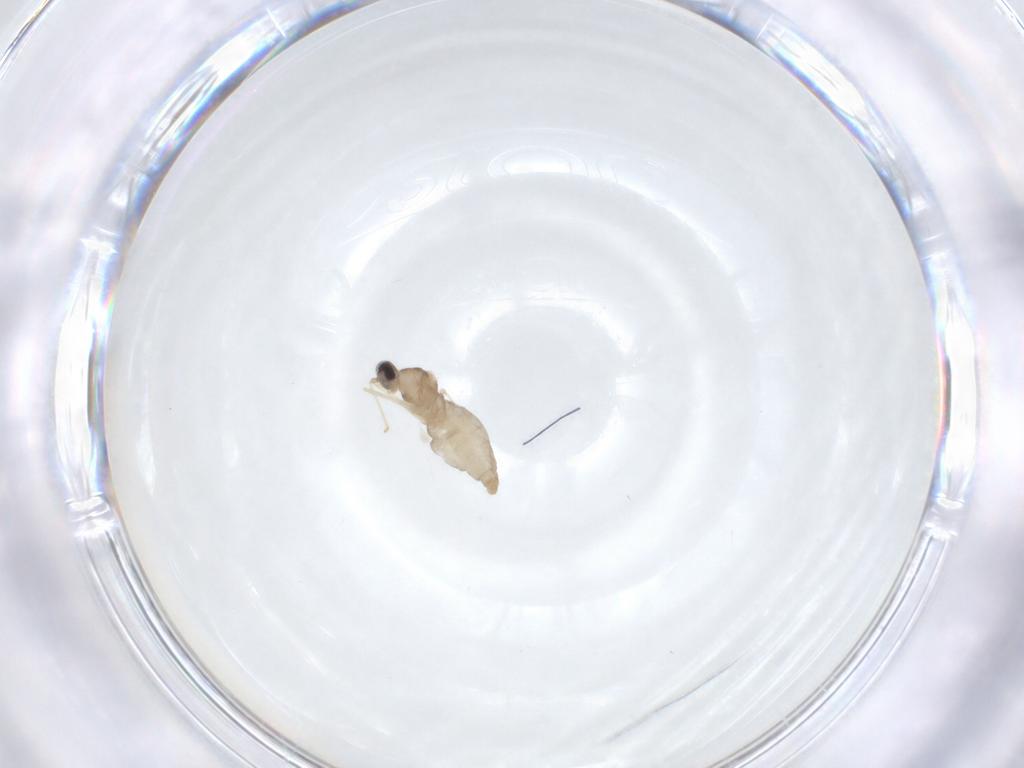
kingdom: Animalia
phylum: Arthropoda
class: Insecta
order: Diptera
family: Cecidomyiidae
